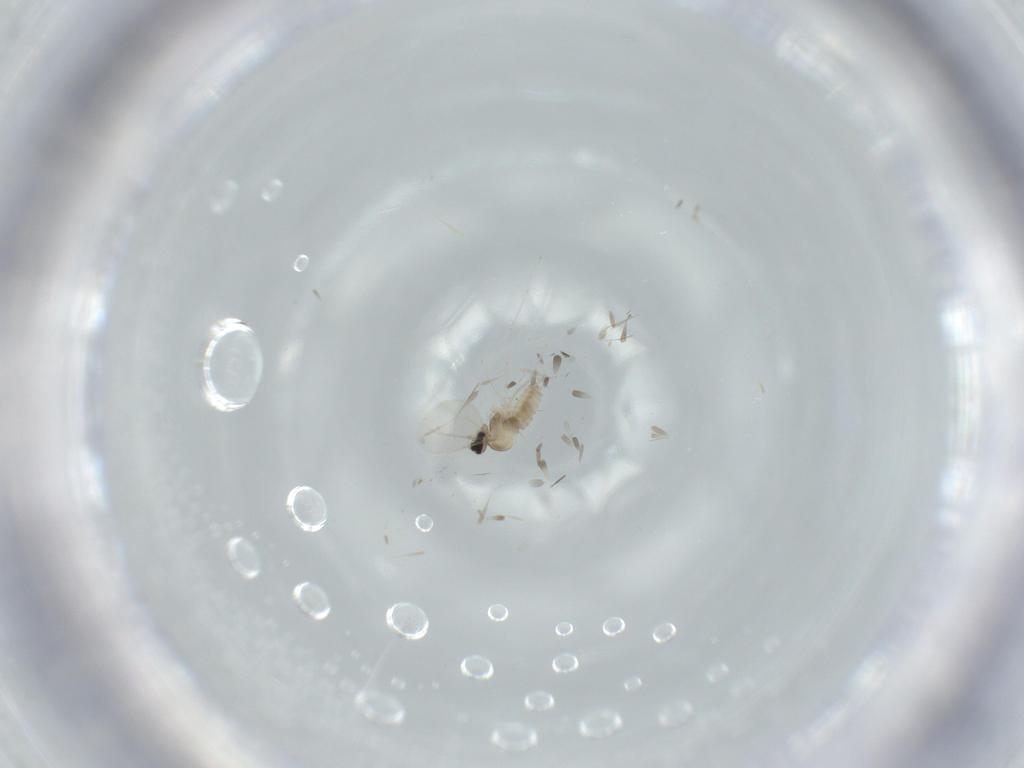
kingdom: Animalia
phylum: Arthropoda
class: Insecta
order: Diptera
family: Cecidomyiidae
